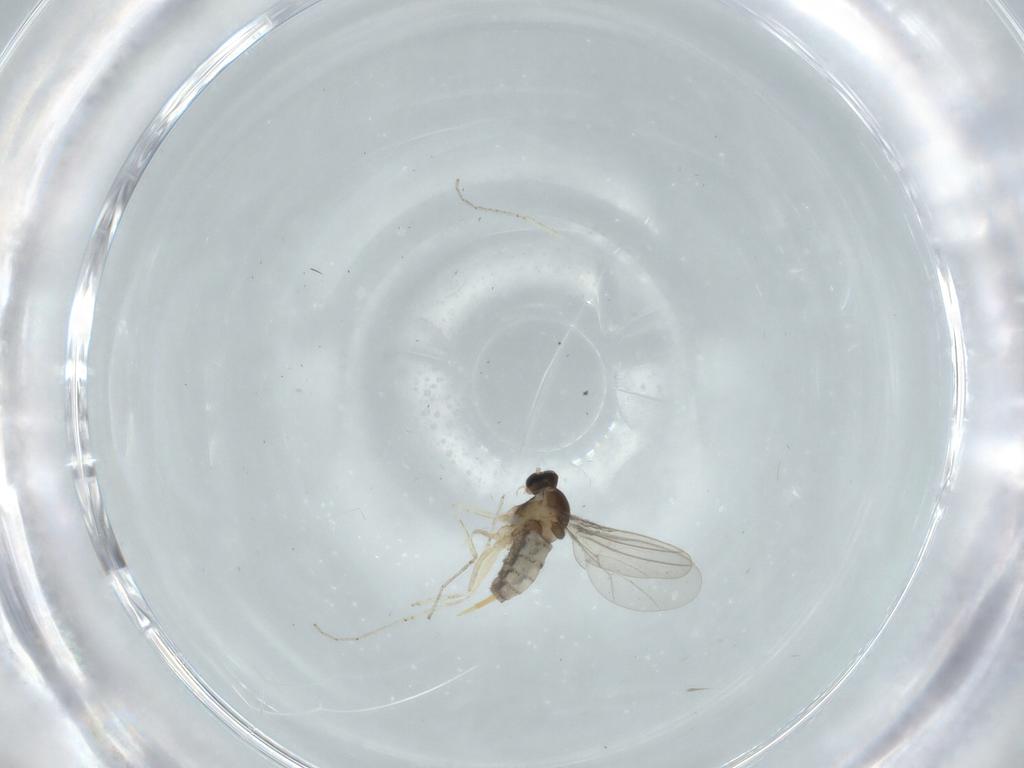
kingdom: Animalia
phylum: Arthropoda
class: Insecta
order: Diptera
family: Cecidomyiidae
